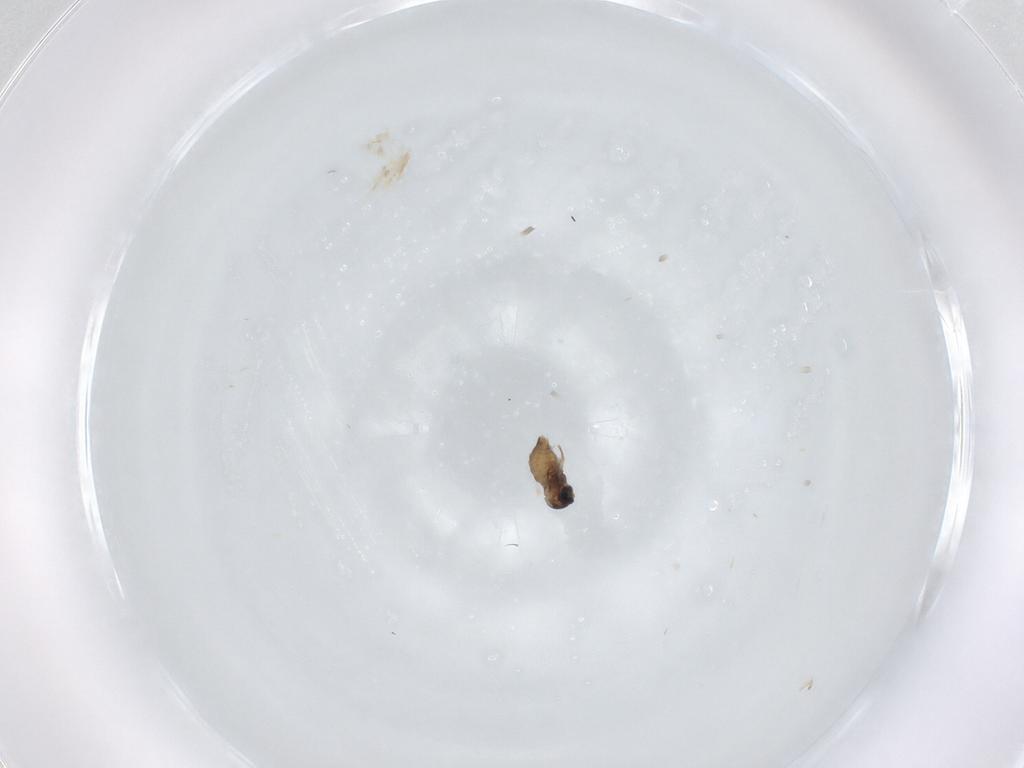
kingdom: Animalia
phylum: Arthropoda
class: Insecta
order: Diptera
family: Cecidomyiidae
